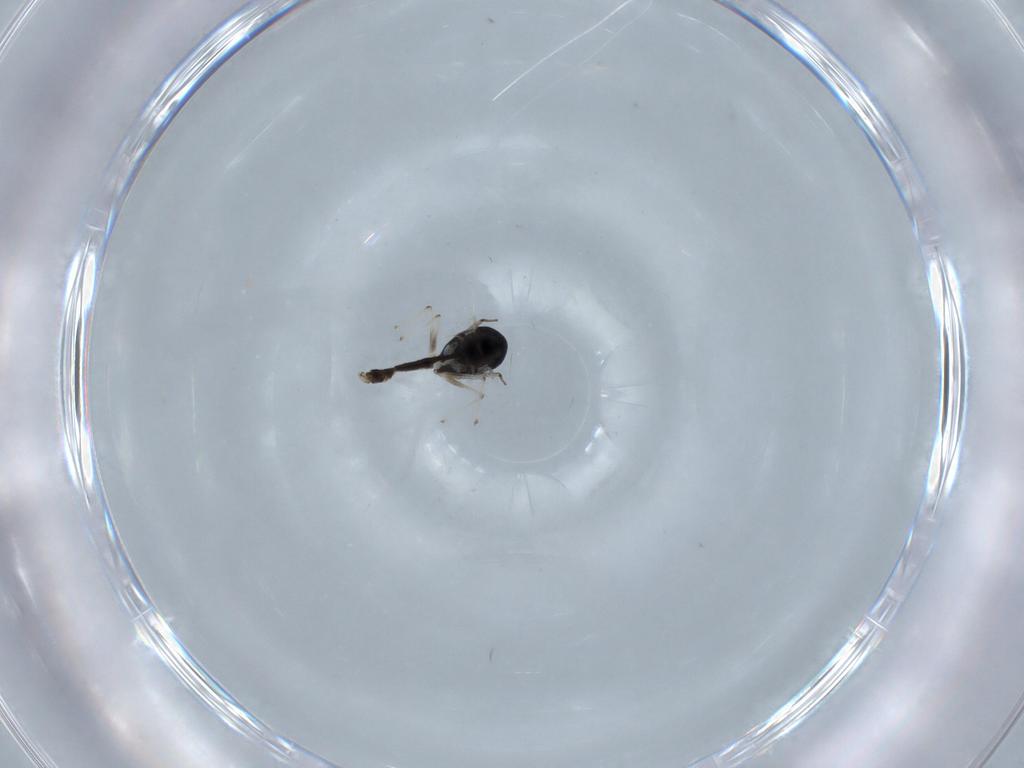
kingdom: Animalia
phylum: Arthropoda
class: Insecta
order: Diptera
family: Chironomidae
